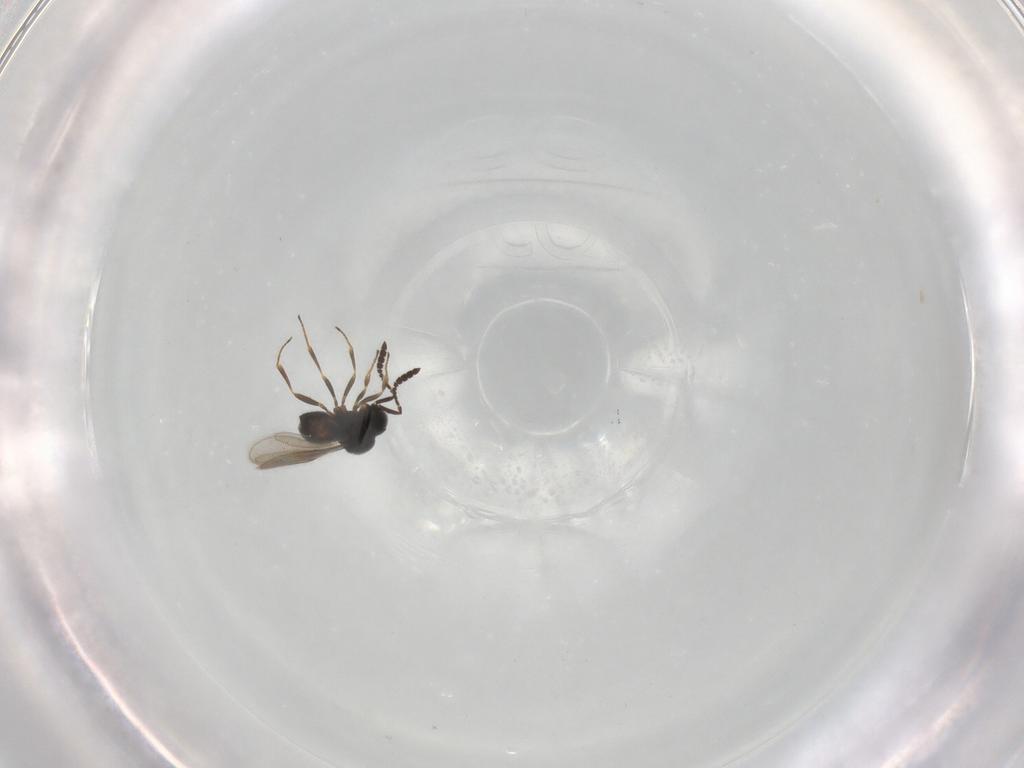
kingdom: Animalia
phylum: Arthropoda
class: Insecta
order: Hymenoptera
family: Scelionidae
